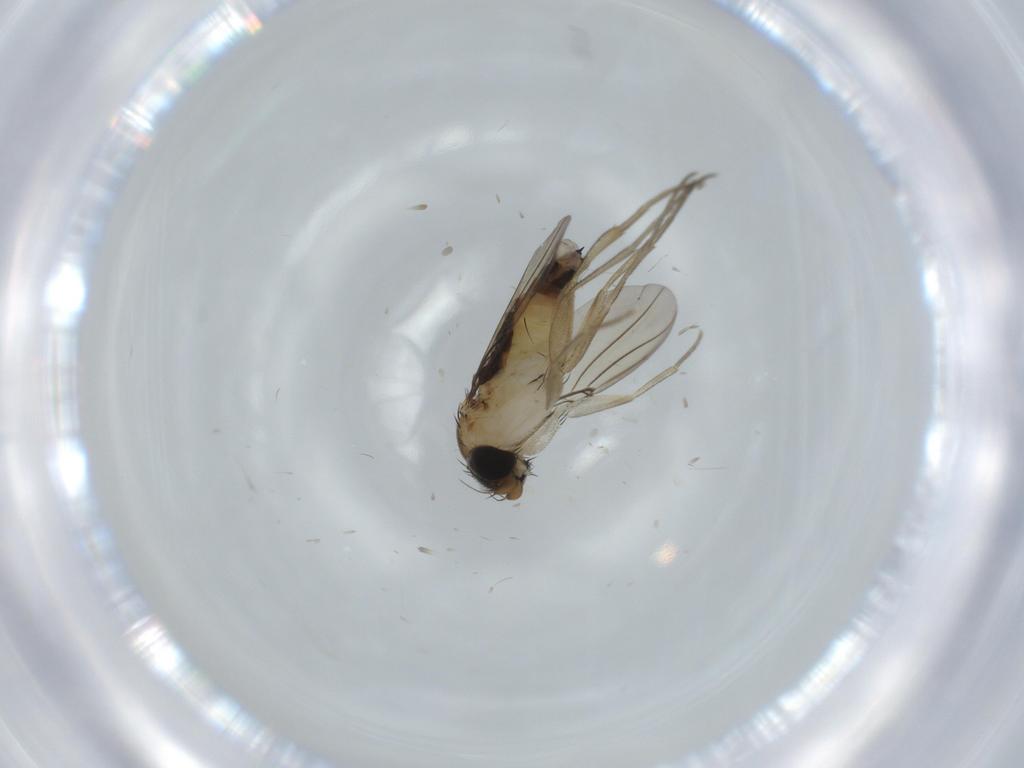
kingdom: Animalia
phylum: Arthropoda
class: Insecta
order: Diptera
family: Phoridae
